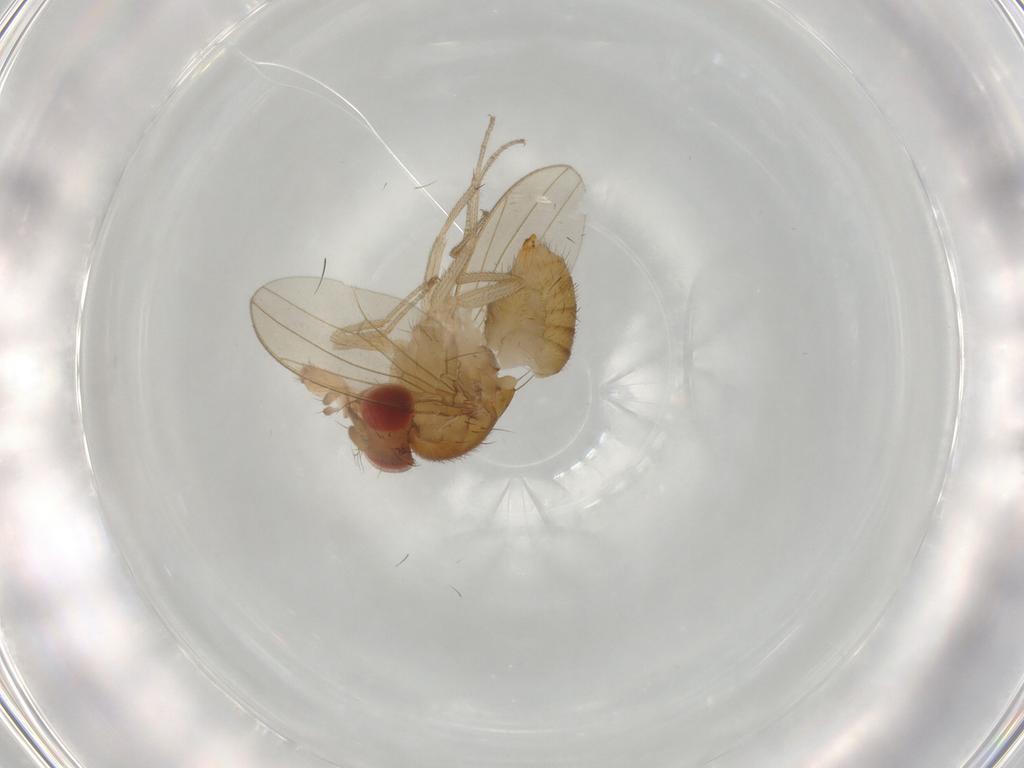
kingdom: Animalia
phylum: Arthropoda
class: Insecta
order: Diptera
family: Drosophilidae
